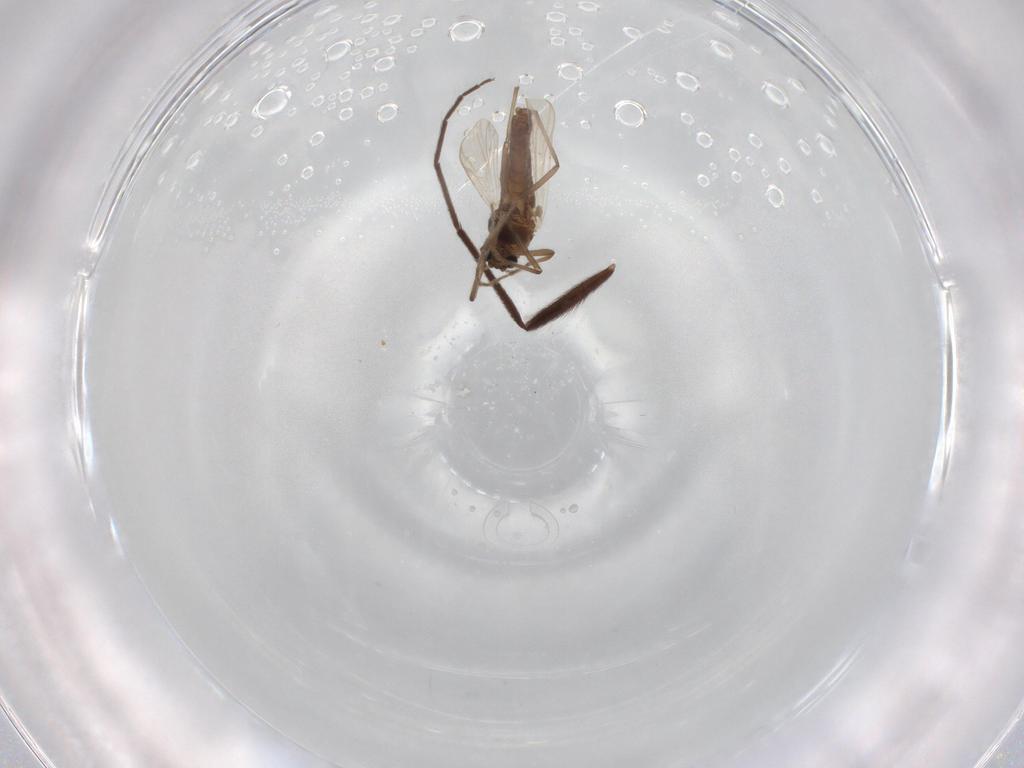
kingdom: Animalia
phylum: Arthropoda
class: Insecta
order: Diptera
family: Chironomidae
